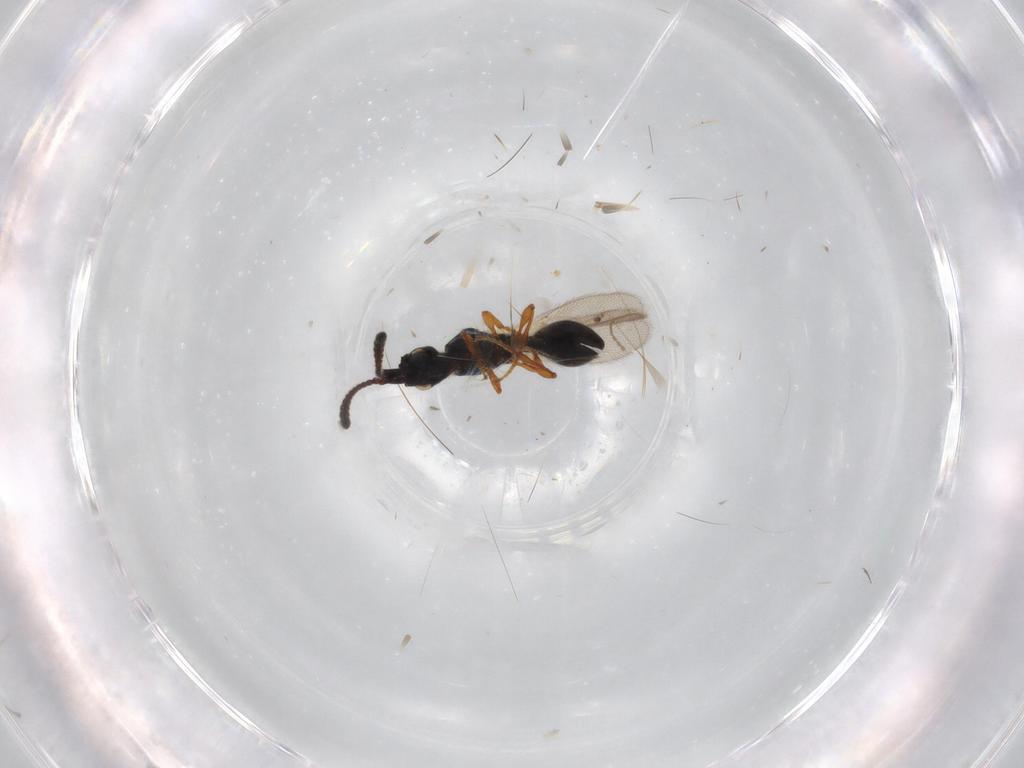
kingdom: Animalia
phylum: Arthropoda
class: Insecta
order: Hymenoptera
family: Diapriidae
